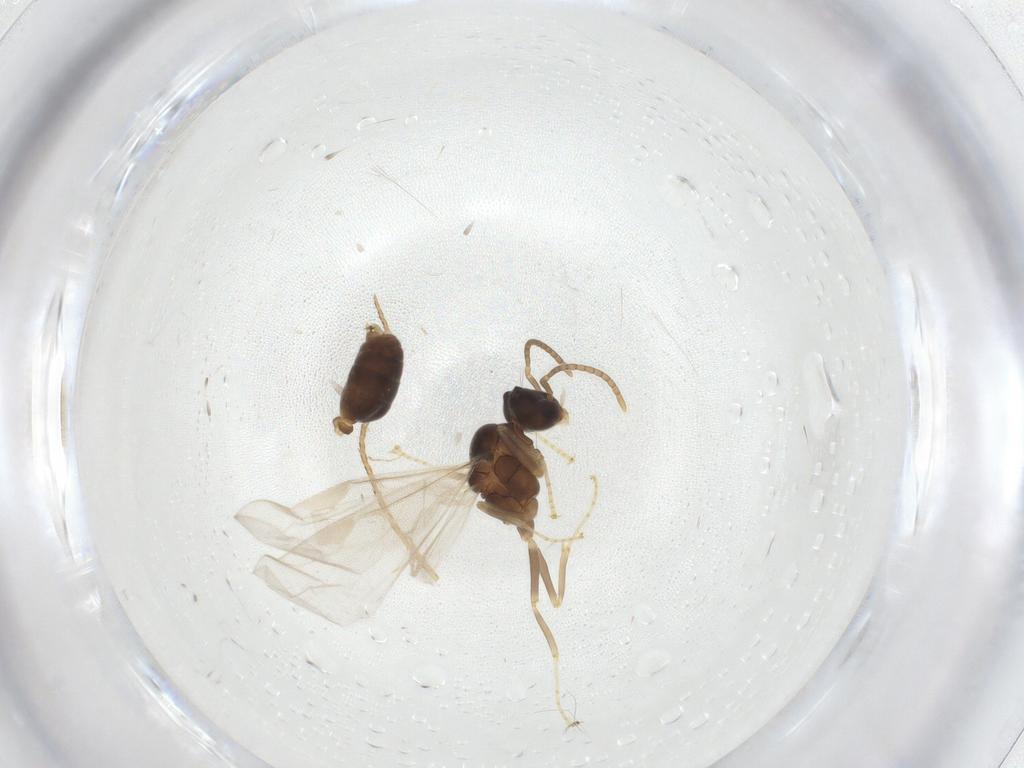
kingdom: Animalia
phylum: Arthropoda
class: Insecta
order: Hymenoptera
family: Formicidae
